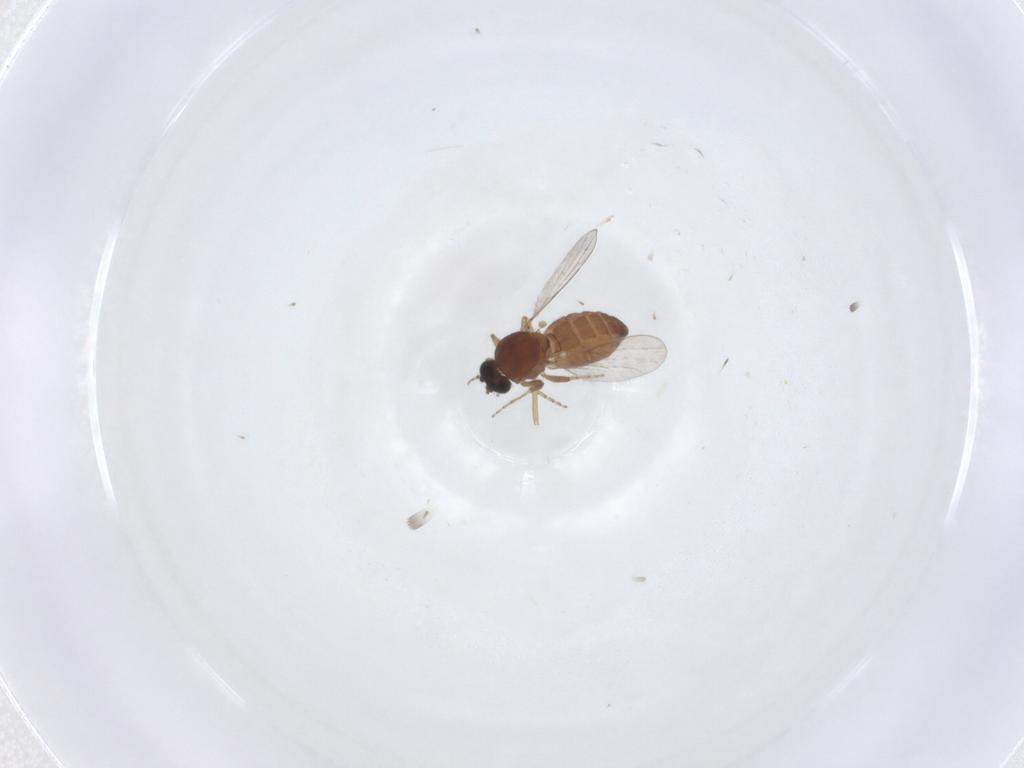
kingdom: Animalia
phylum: Arthropoda
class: Insecta
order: Diptera
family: Ceratopogonidae
